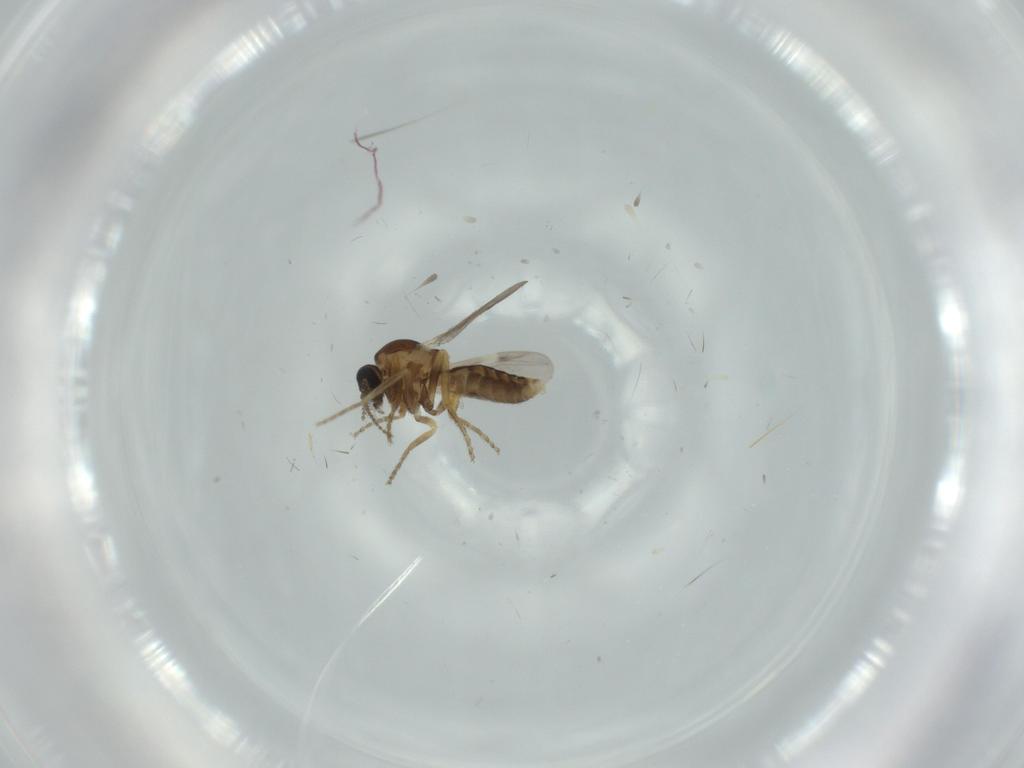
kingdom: Animalia
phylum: Arthropoda
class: Insecta
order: Diptera
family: Ceratopogonidae
